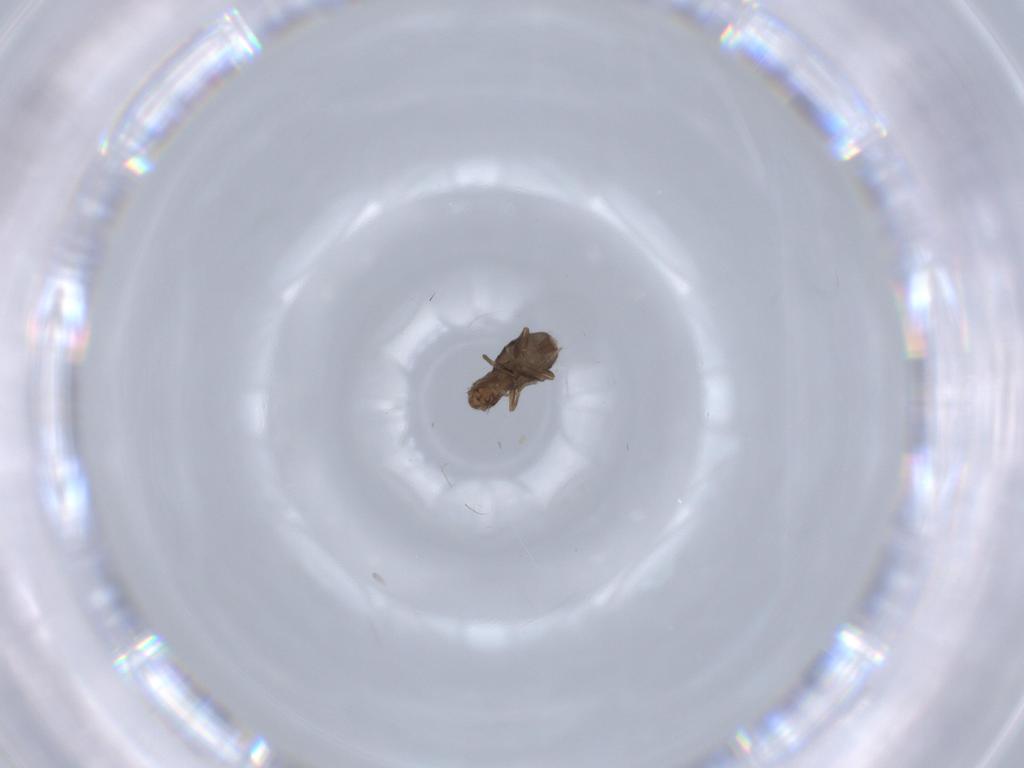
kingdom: Animalia
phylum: Arthropoda
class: Insecta
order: Diptera
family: Phoridae
